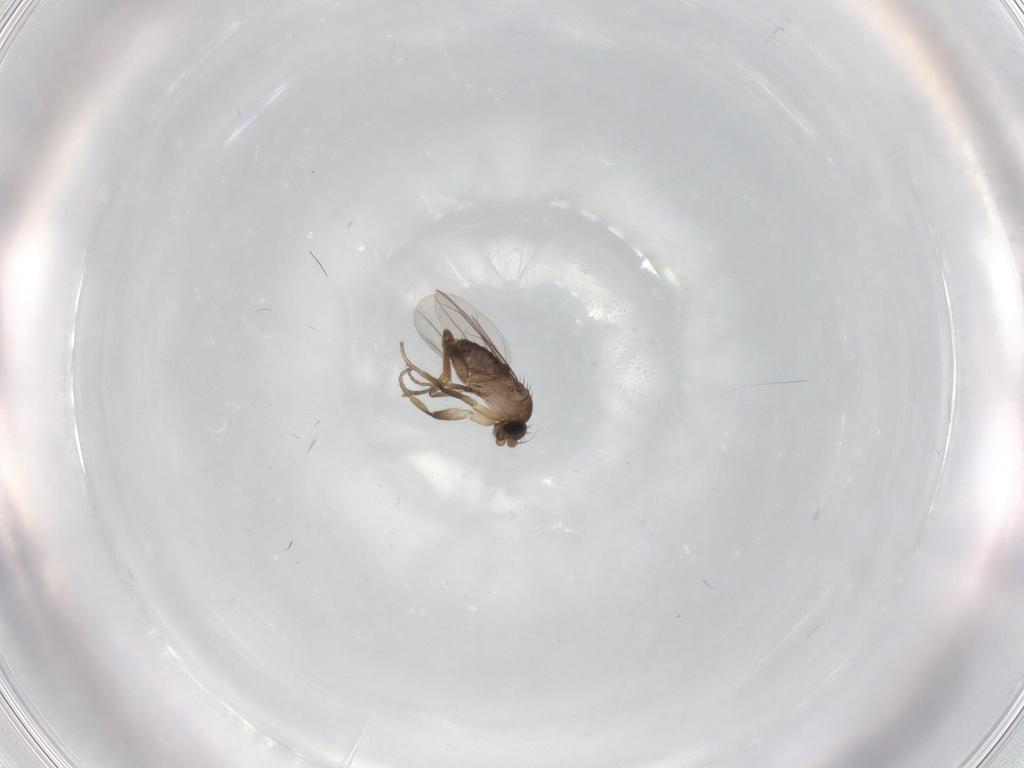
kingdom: Animalia
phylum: Arthropoda
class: Insecta
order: Diptera
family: Phoridae
